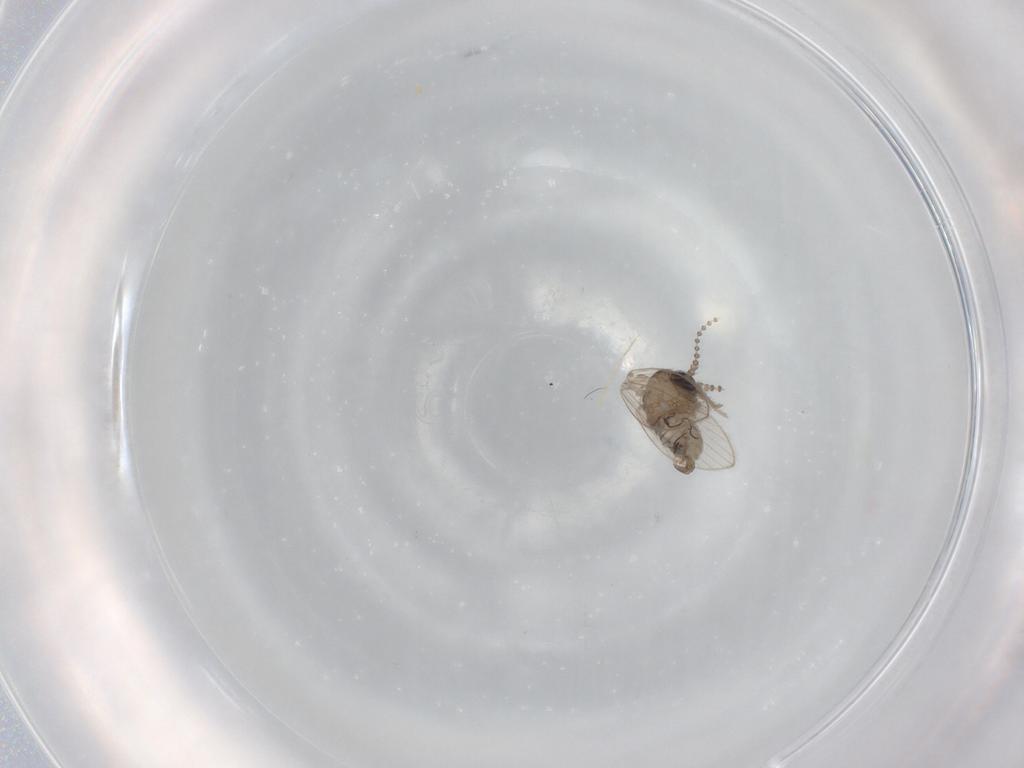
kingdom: Animalia
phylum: Arthropoda
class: Insecta
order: Diptera
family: Psychodidae
